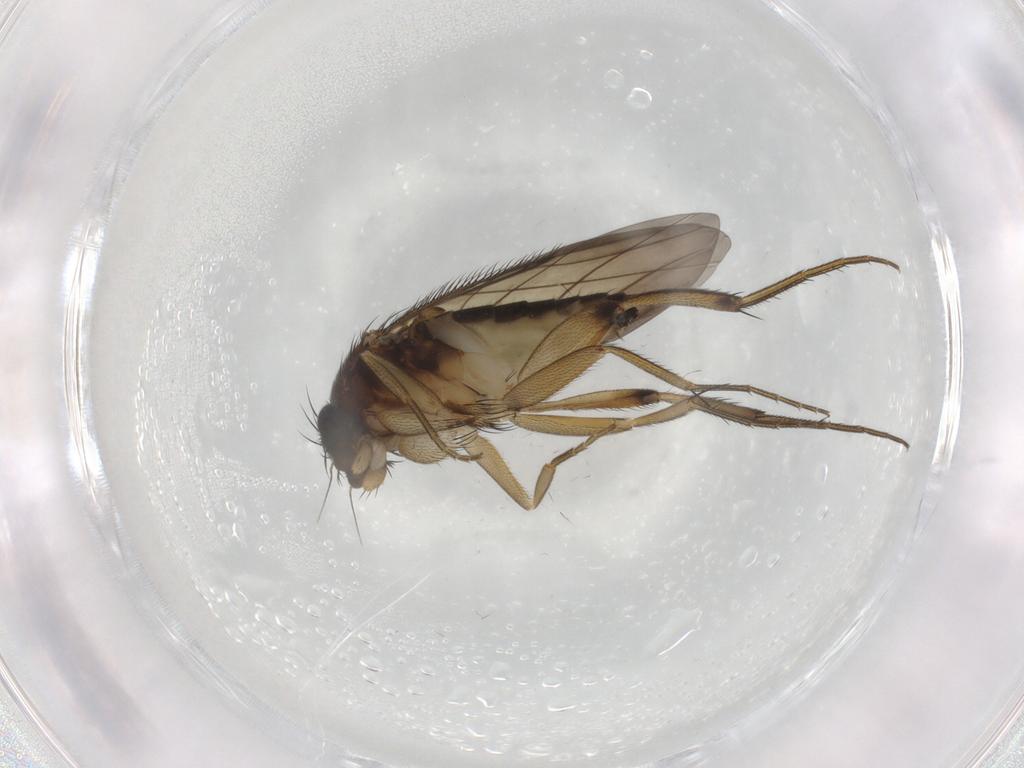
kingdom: Animalia
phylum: Arthropoda
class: Insecta
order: Diptera
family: Phoridae
